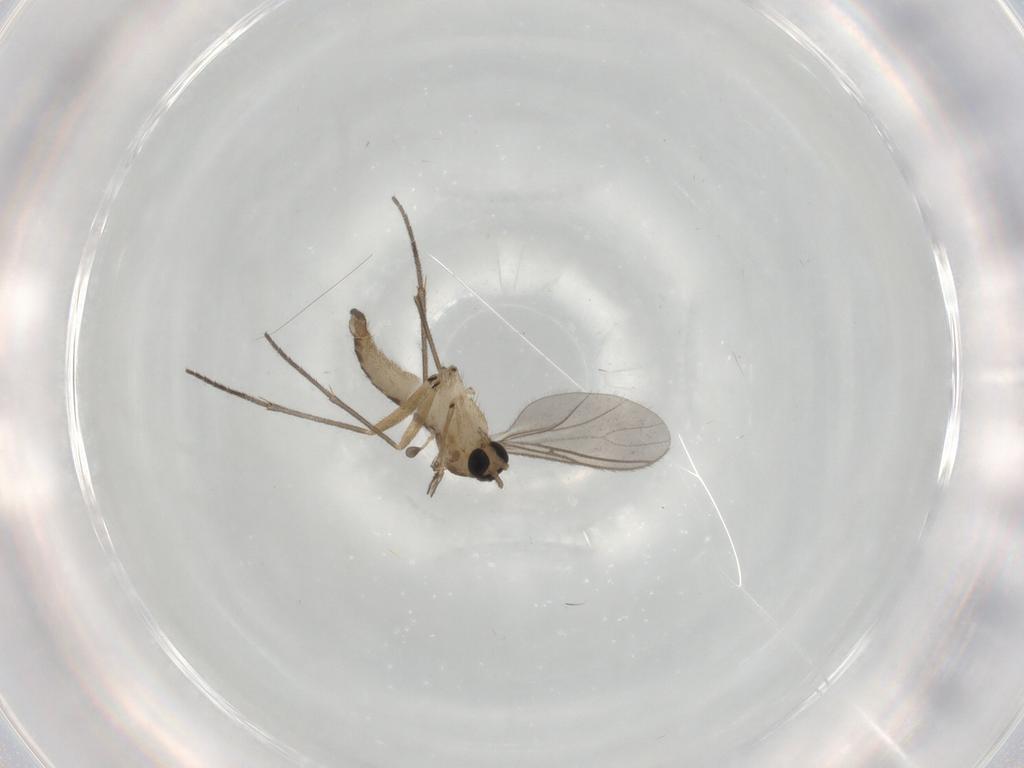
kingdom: Animalia
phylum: Arthropoda
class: Insecta
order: Diptera
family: Sciaridae
